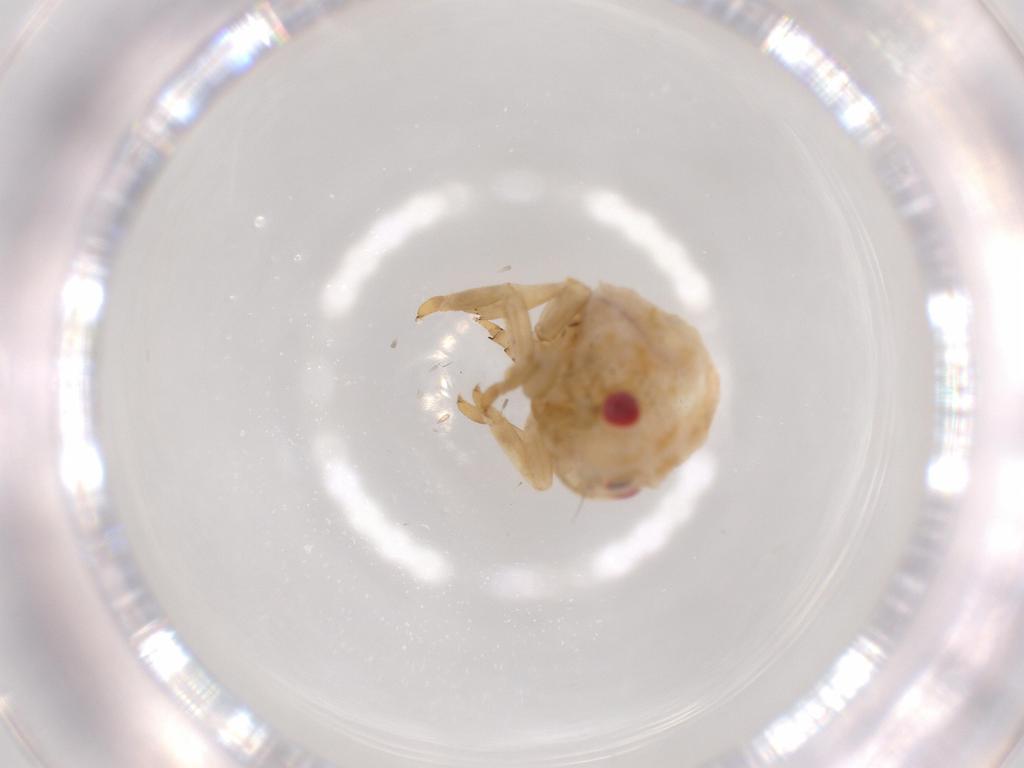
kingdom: Animalia
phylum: Arthropoda
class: Insecta
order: Hemiptera
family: Acanaloniidae
